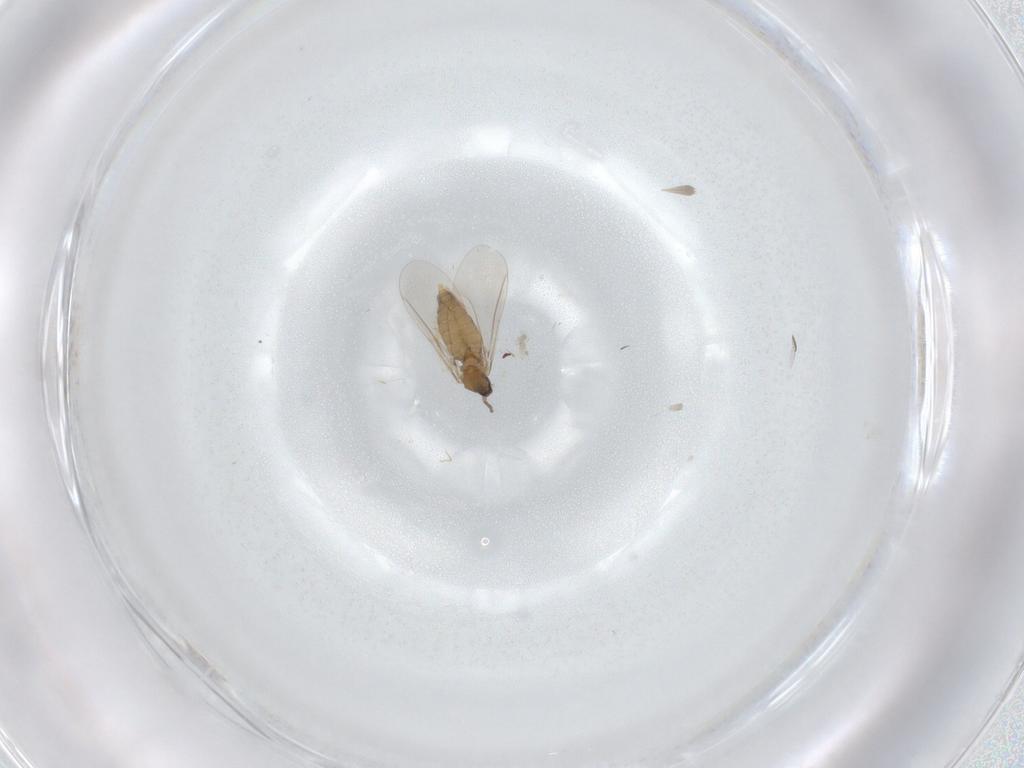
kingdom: Animalia
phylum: Arthropoda
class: Insecta
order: Diptera
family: Cecidomyiidae
